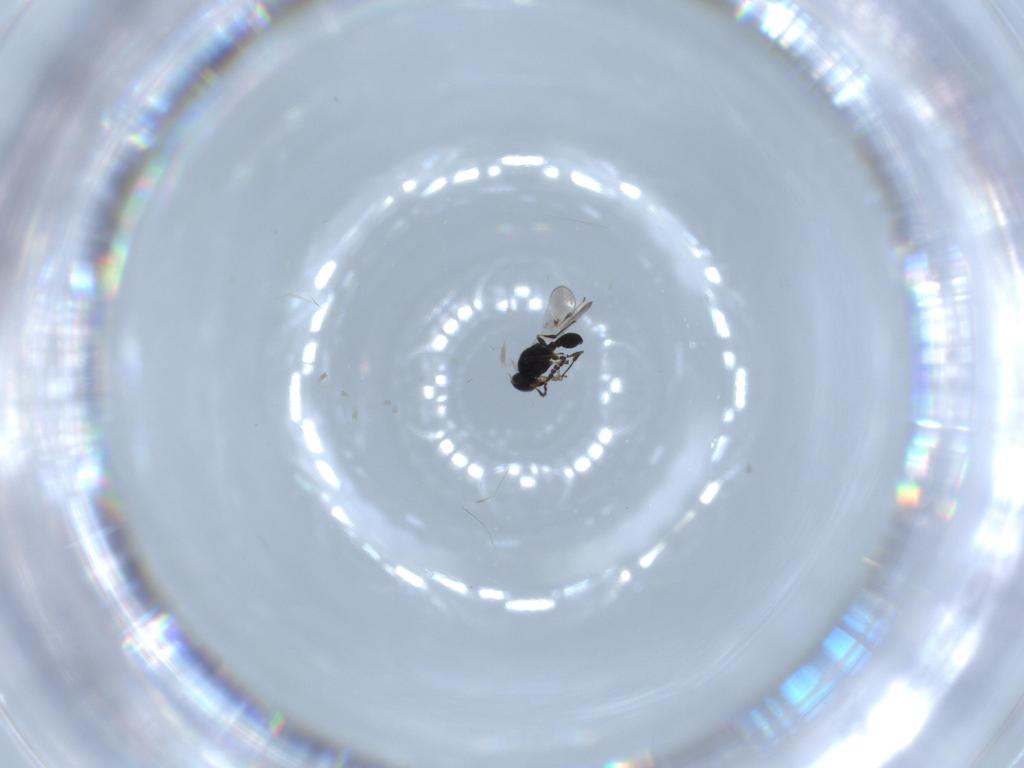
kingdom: Animalia
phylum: Arthropoda
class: Insecta
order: Hymenoptera
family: Platygastridae
